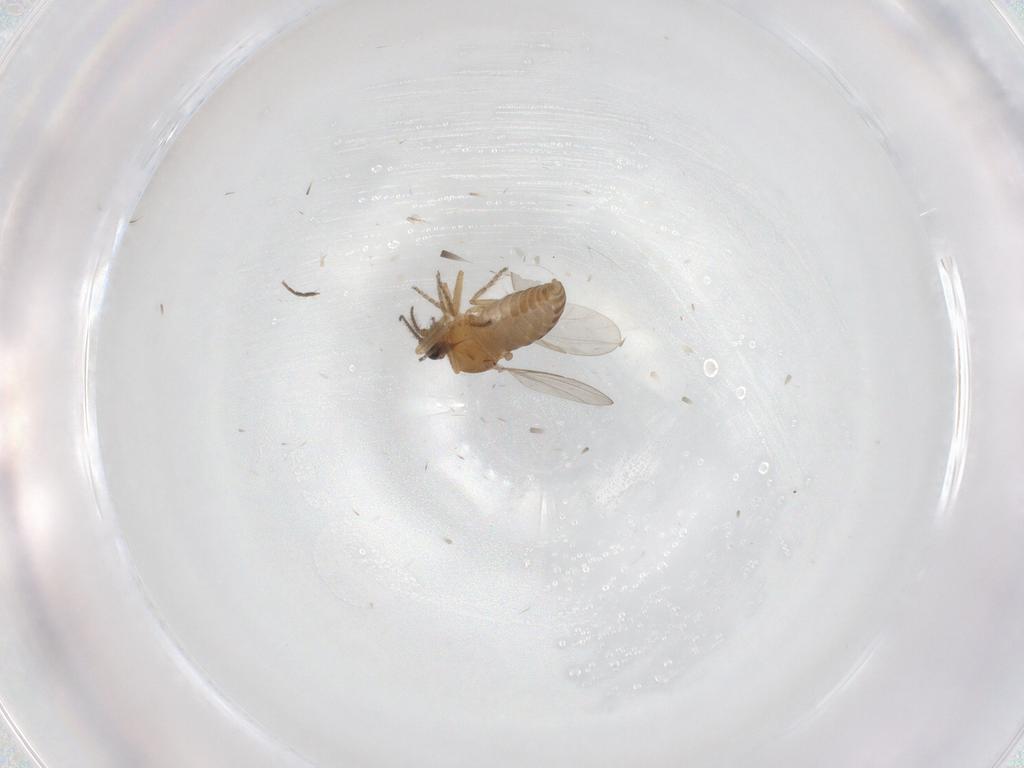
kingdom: Animalia
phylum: Arthropoda
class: Insecta
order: Diptera
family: Ceratopogonidae
